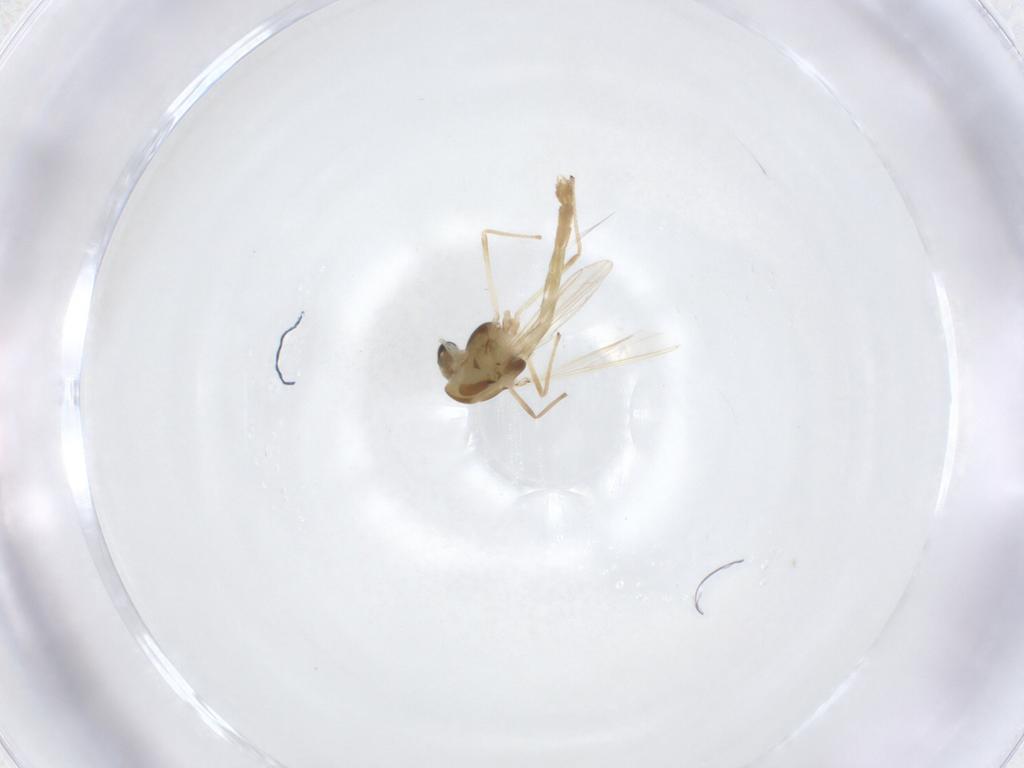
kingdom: Animalia
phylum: Arthropoda
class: Insecta
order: Diptera
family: Chironomidae
